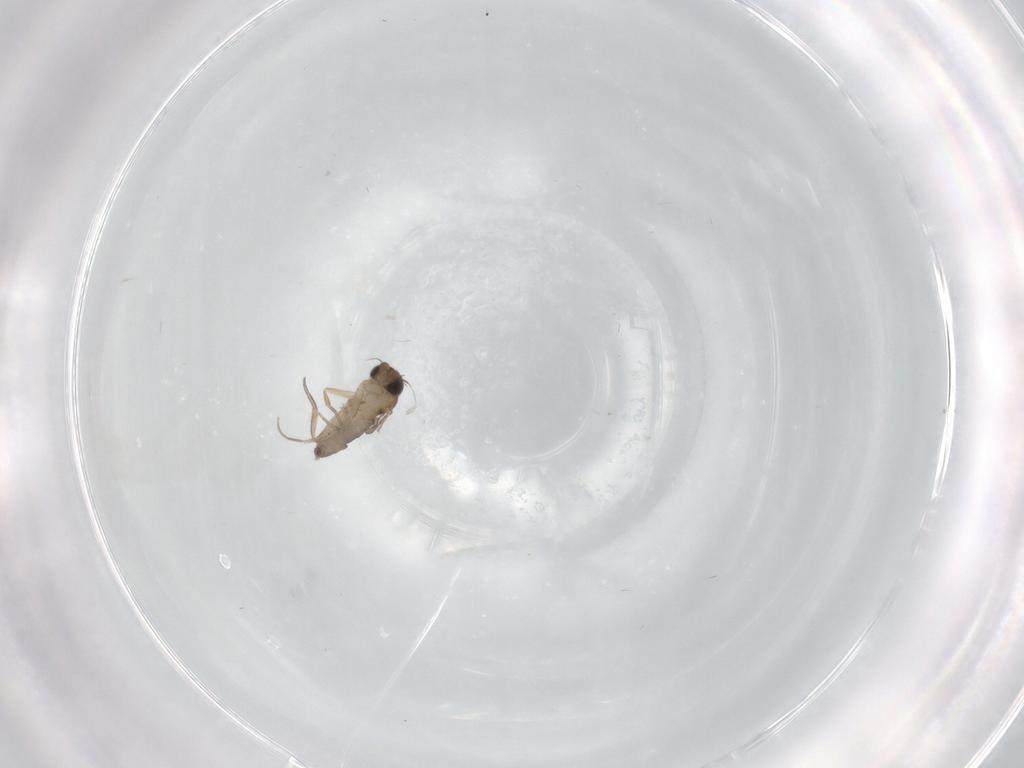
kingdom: Animalia
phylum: Arthropoda
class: Insecta
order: Diptera
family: Phoridae
